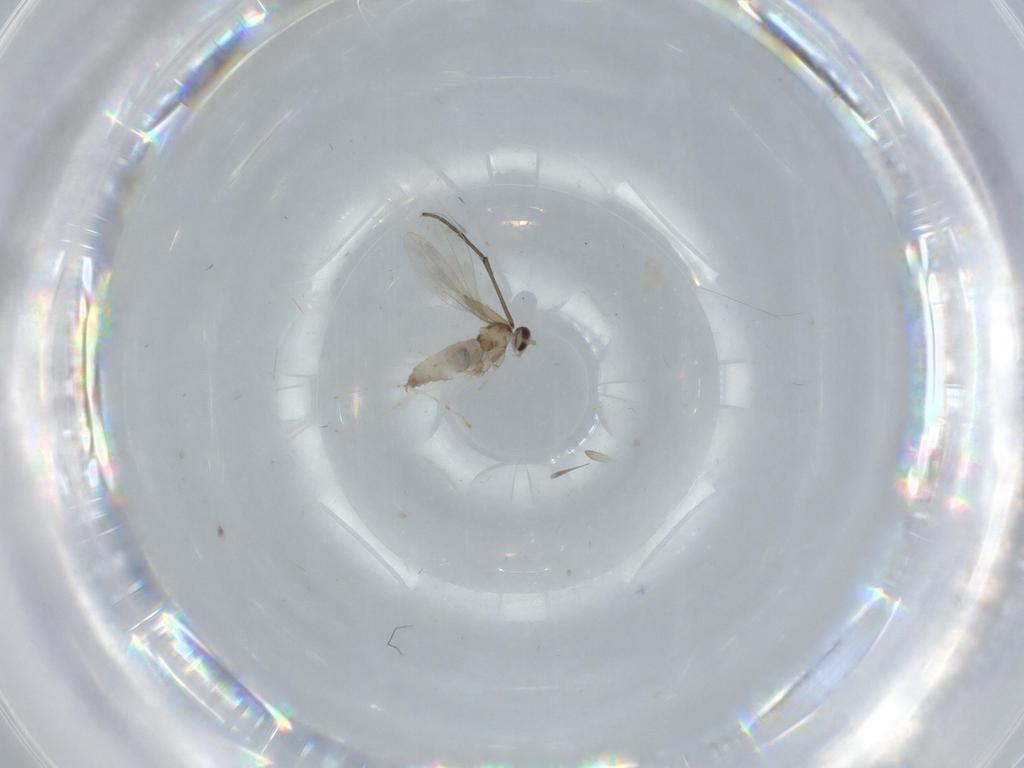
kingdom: Animalia
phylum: Arthropoda
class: Insecta
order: Diptera
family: Cecidomyiidae
